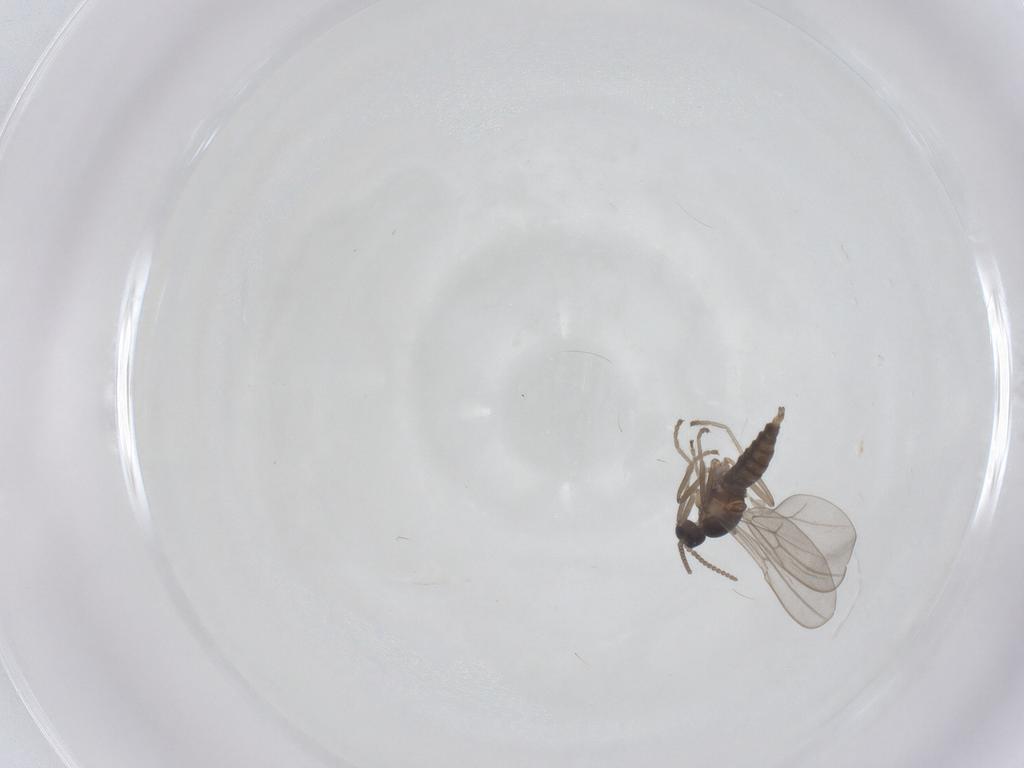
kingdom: Animalia
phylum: Arthropoda
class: Insecta
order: Diptera
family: Cecidomyiidae
